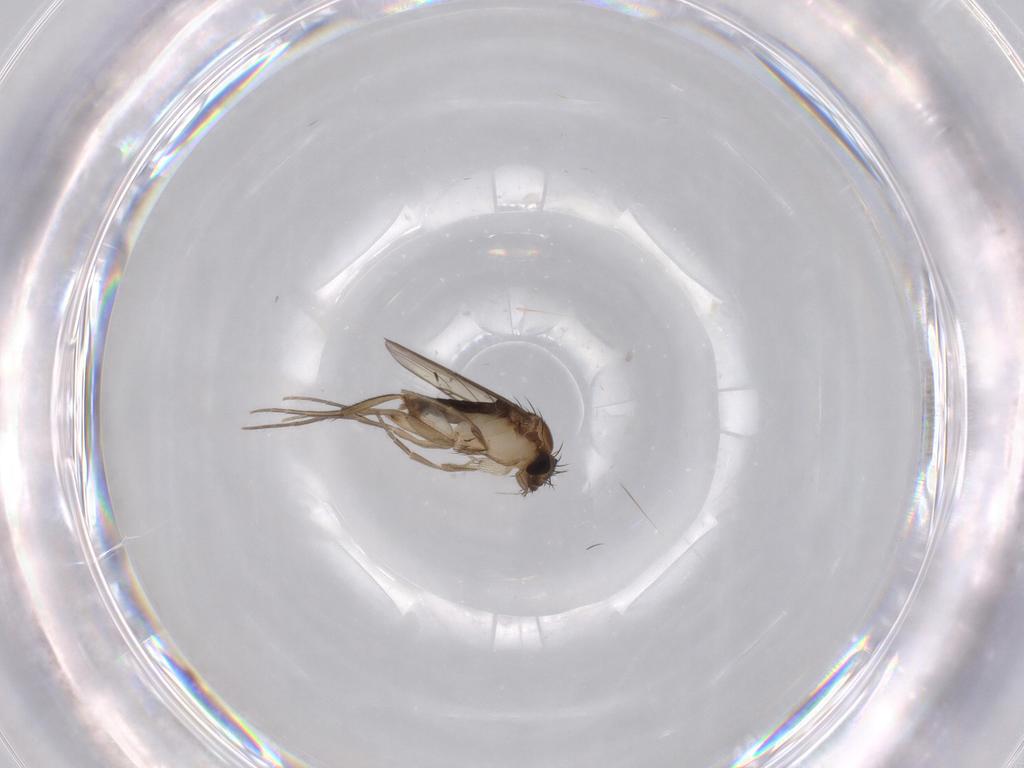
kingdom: Animalia
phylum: Arthropoda
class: Insecta
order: Diptera
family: Phoridae
